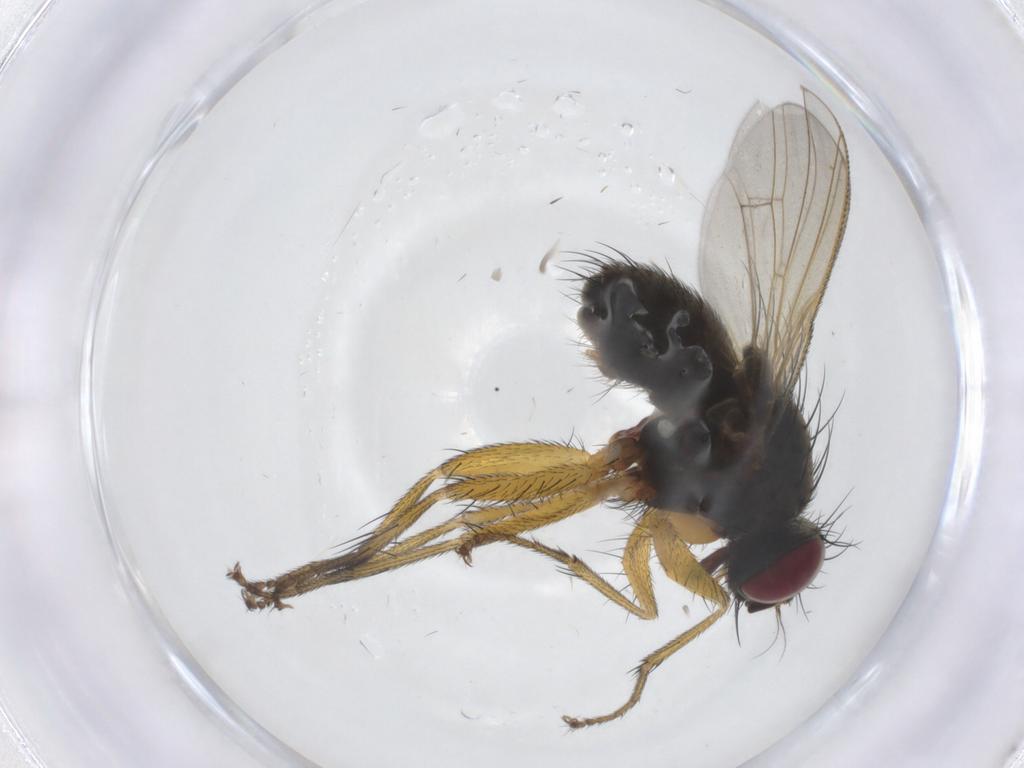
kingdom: Animalia
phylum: Arthropoda
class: Insecta
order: Diptera
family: Muscidae
